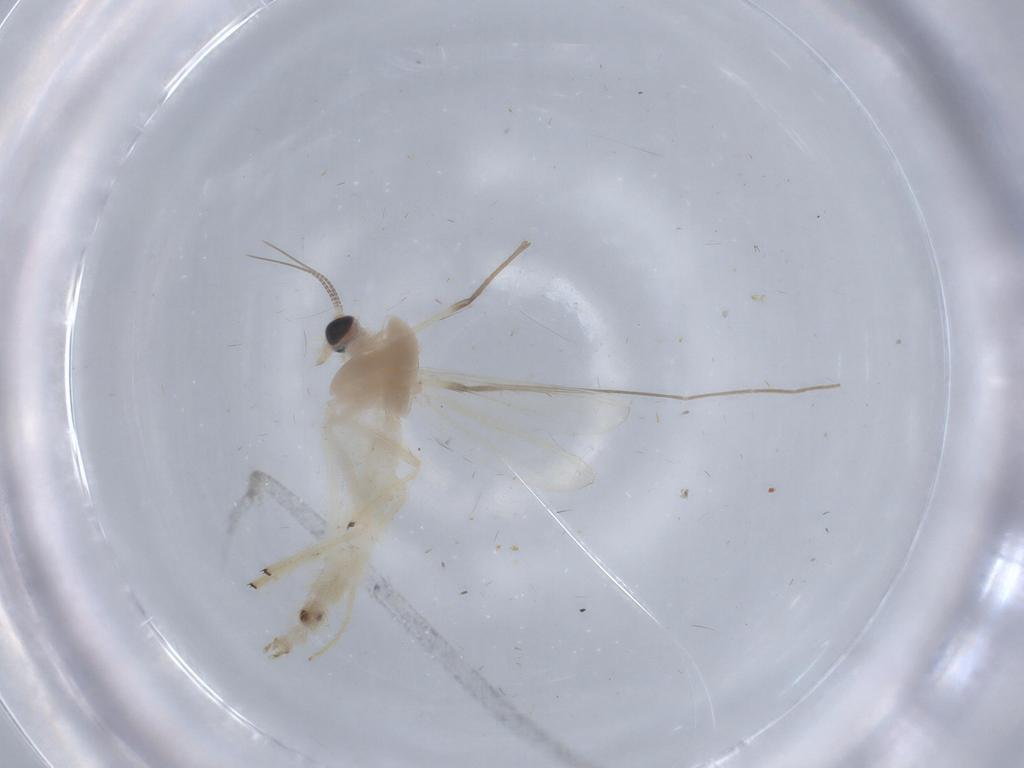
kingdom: Animalia
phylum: Arthropoda
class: Insecta
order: Diptera
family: Chironomidae
